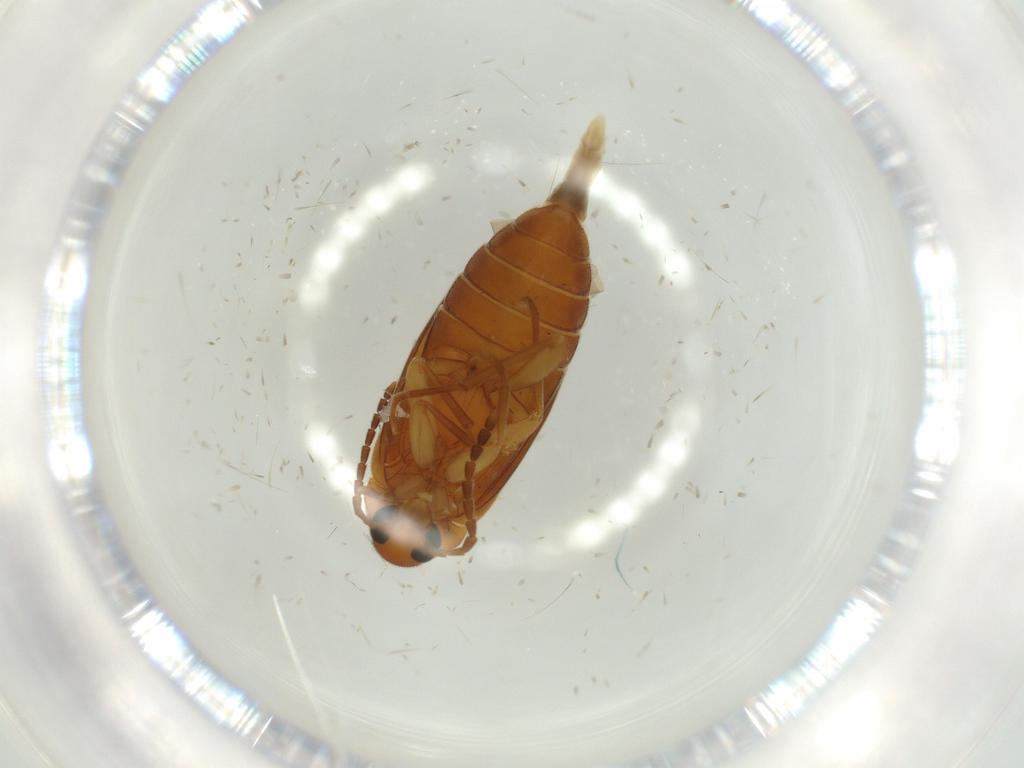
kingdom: Animalia
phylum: Arthropoda
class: Insecta
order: Coleoptera
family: Scraptiidae
